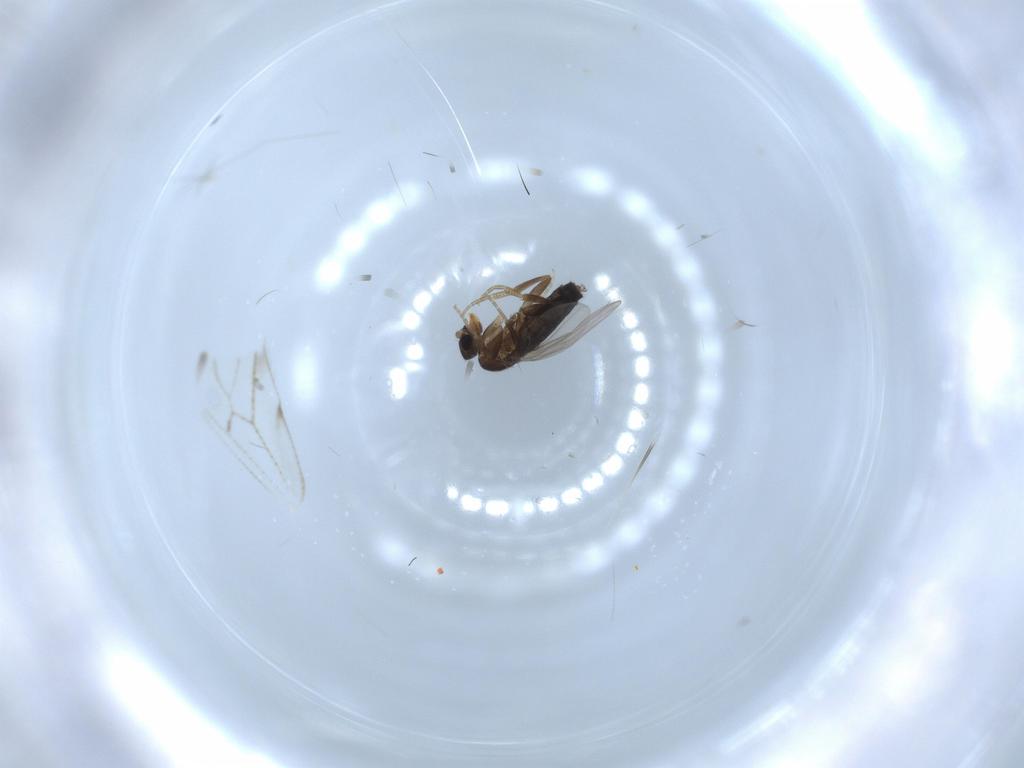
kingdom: Animalia
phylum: Arthropoda
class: Insecta
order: Diptera
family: Phoridae
